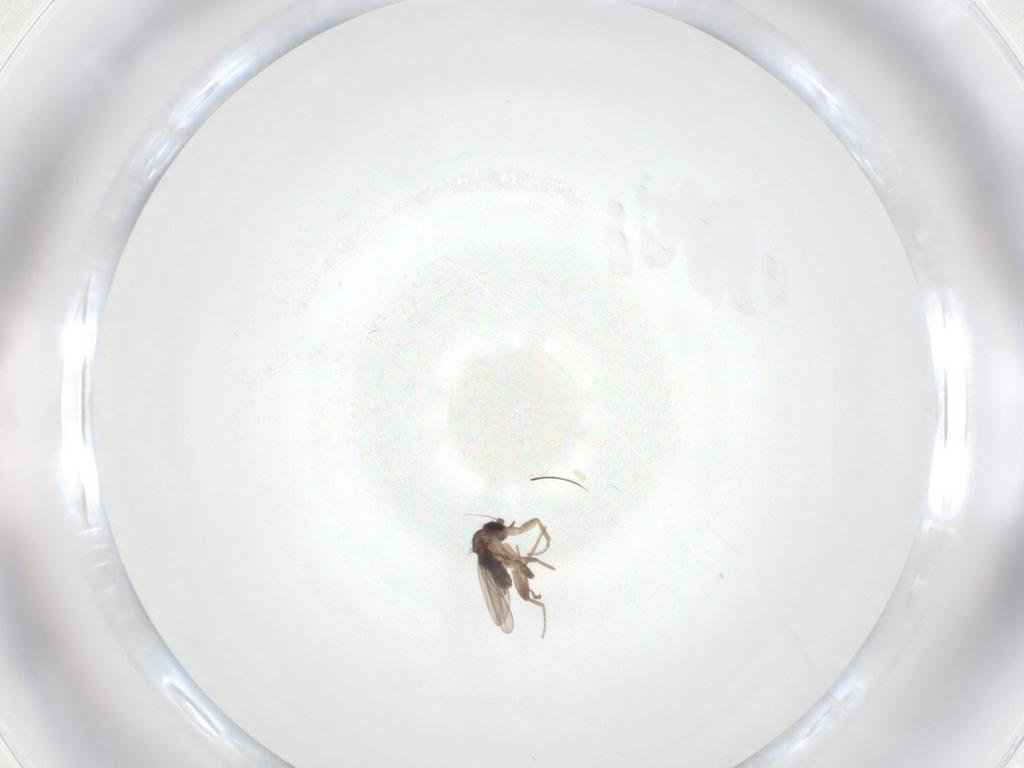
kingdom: Animalia
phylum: Arthropoda
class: Insecta
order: Diptera
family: Phoridae
